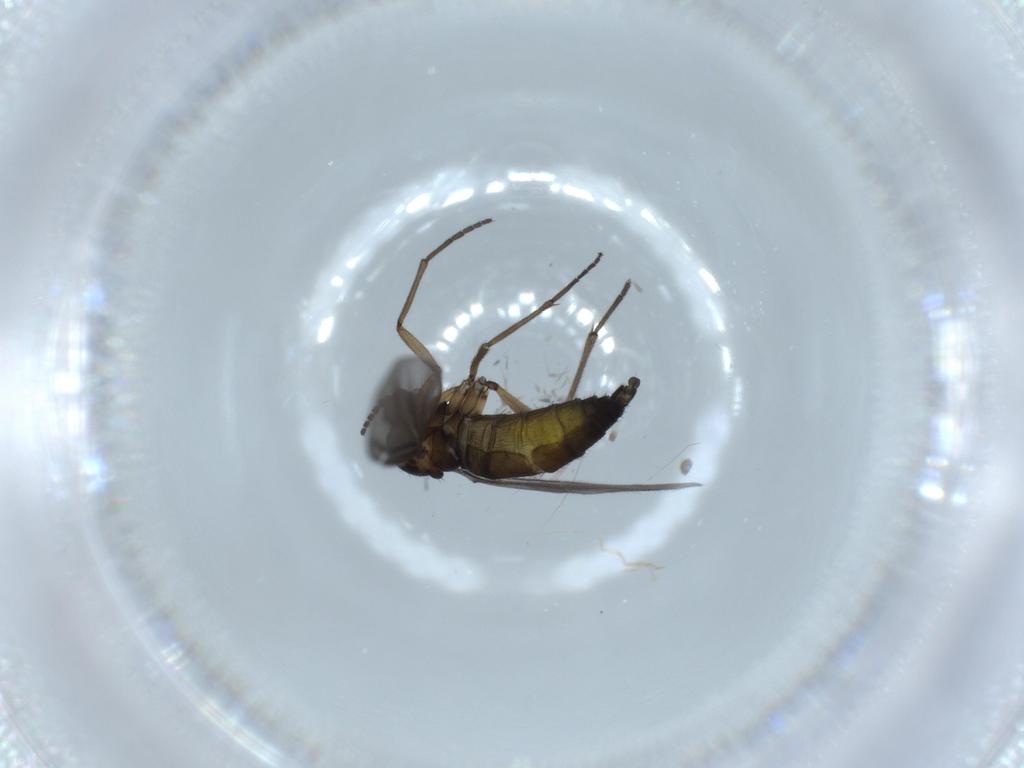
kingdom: Animalia
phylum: Arthropoda
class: Insecta
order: Diptera
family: Sciaridae
